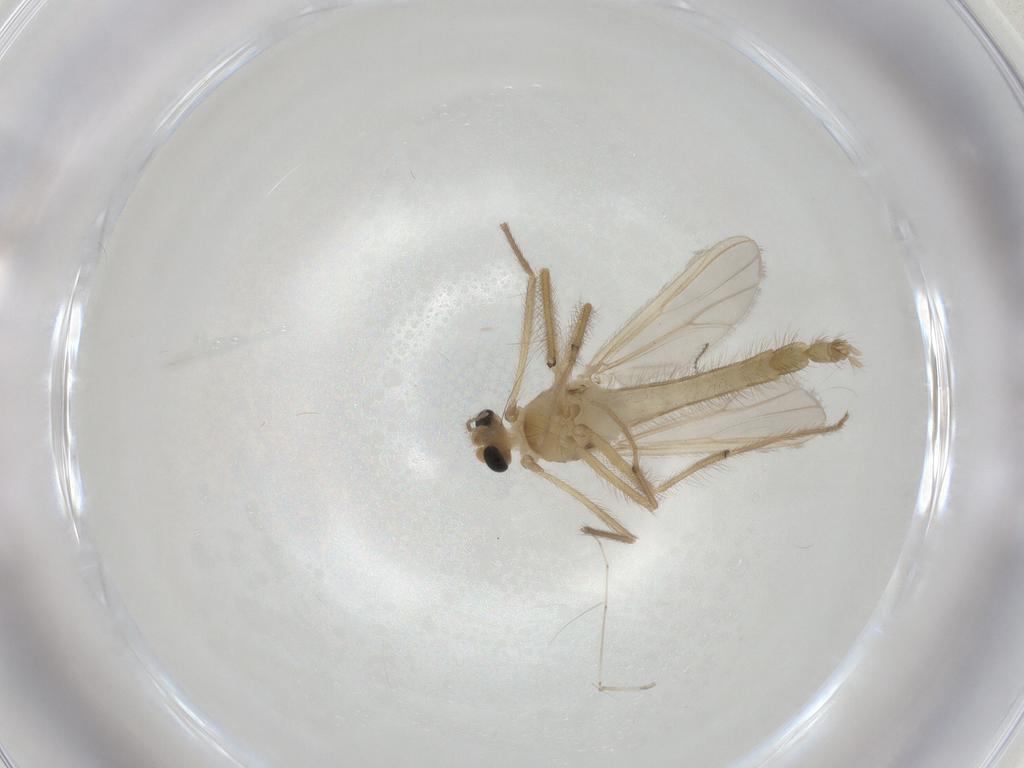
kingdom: Animalia
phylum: Arthropoda
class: Insecta
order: Diptera
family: Chironomidae
